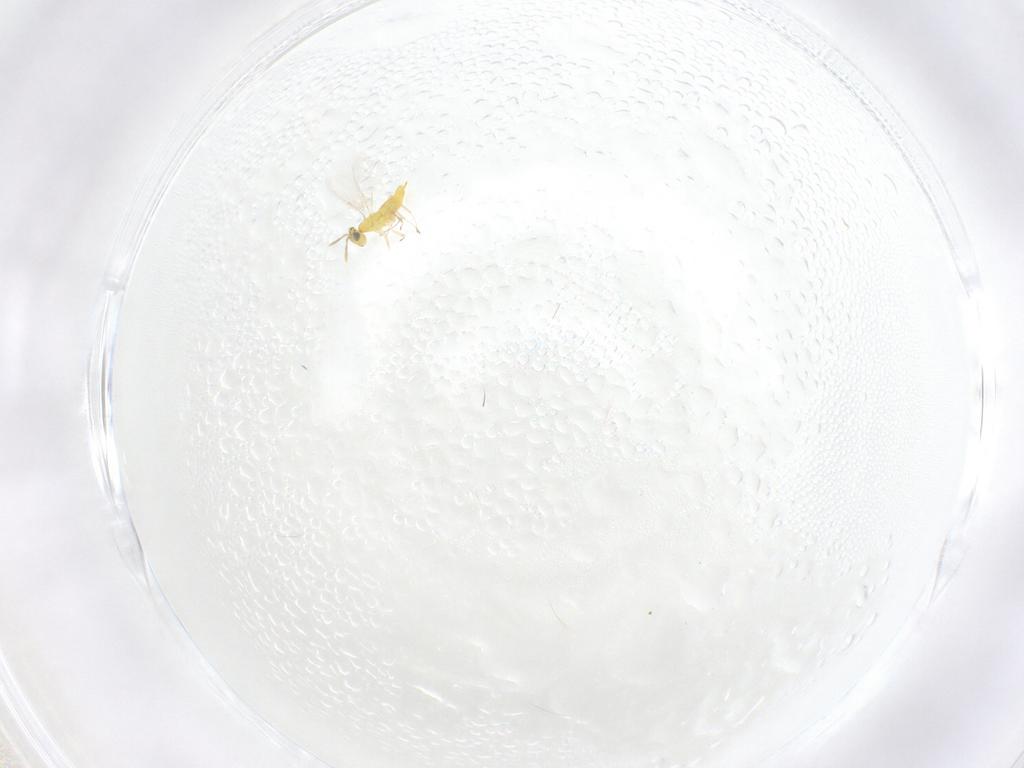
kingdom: Animalia
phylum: Arthropoda
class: Insecta
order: Hymenoptera
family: Aphelinidae
